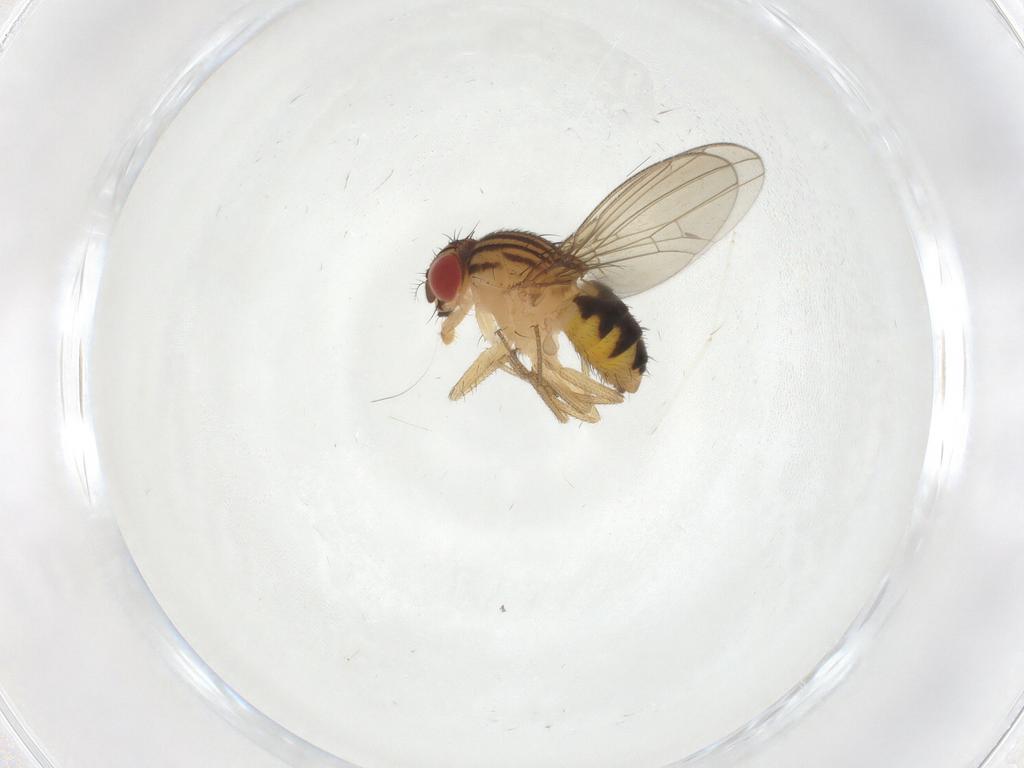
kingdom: Animalia
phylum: Arthropoda
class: Insecta
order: Diptera
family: Drosophilidae
